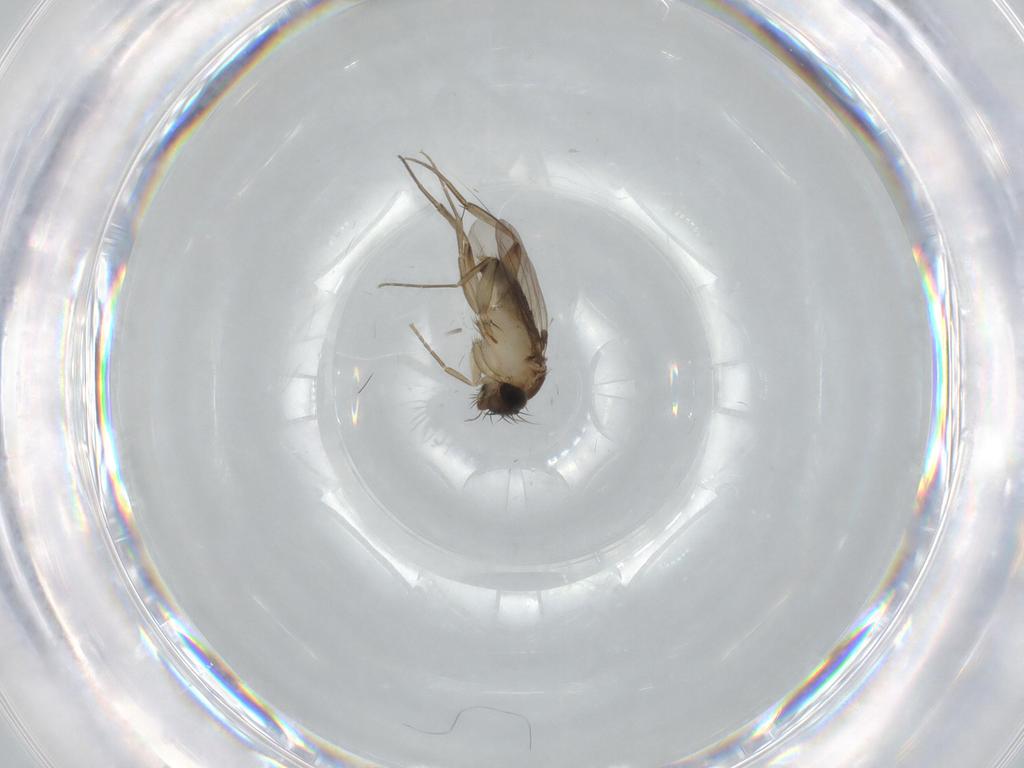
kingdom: Animalia
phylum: Arthropoda
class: Insecta
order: Diptera
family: Phoridae
